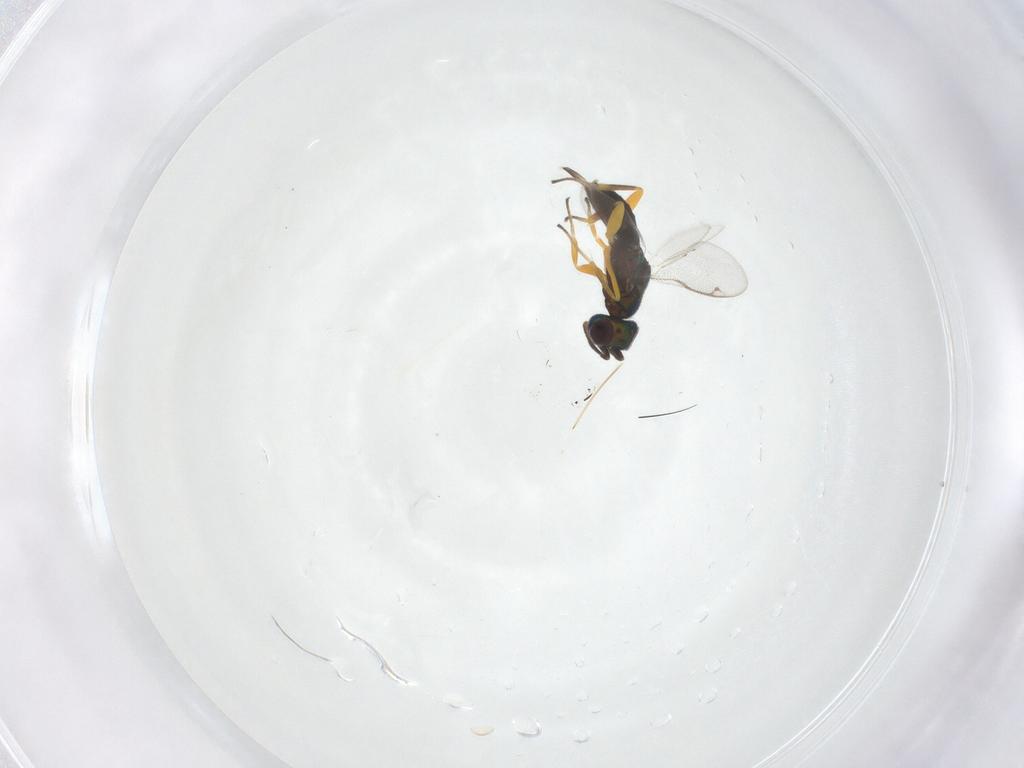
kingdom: Animalia
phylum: Arthropoda
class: Insecta
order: Hymenoptera
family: Eupelmidae
